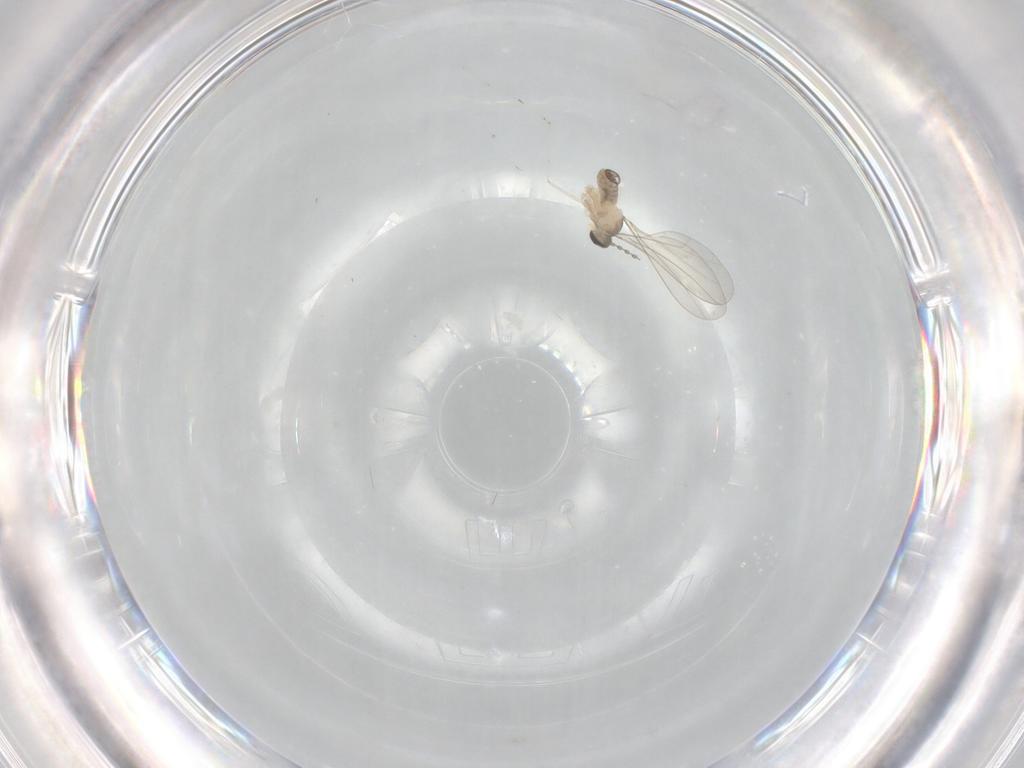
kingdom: Animalia
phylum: Arthropoda
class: Insecta
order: Diptera
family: Cecidomyiidae
